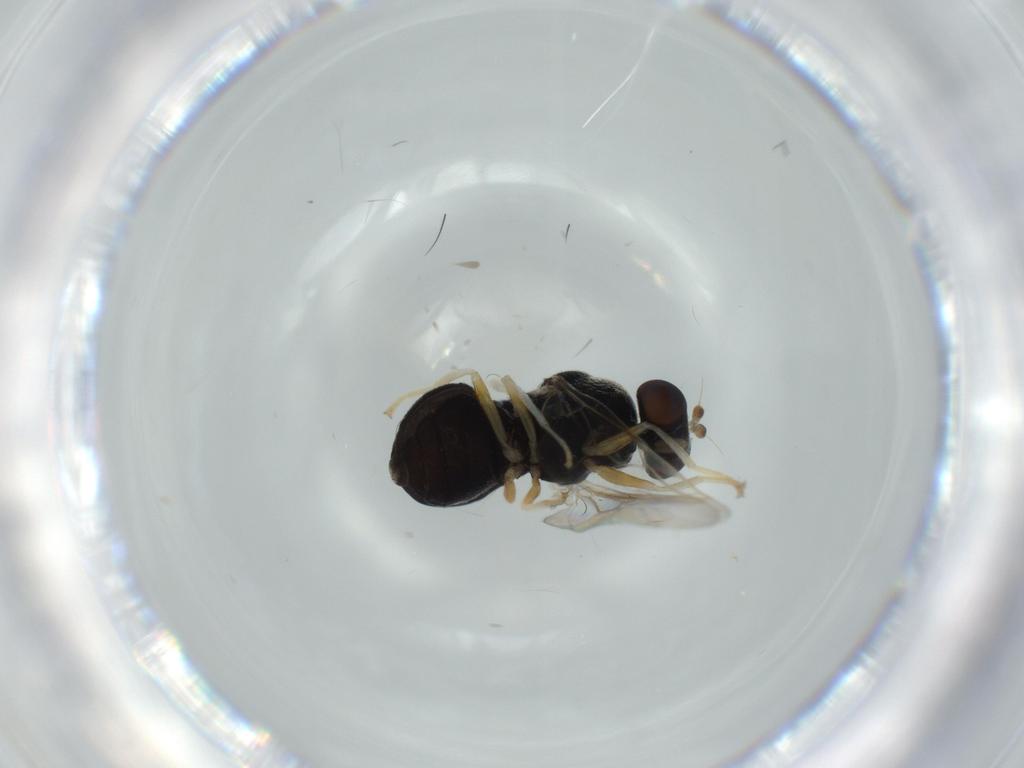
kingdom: Animalia
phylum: Arthropoda
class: Insecta
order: Diptera
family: Stratiomyidae
